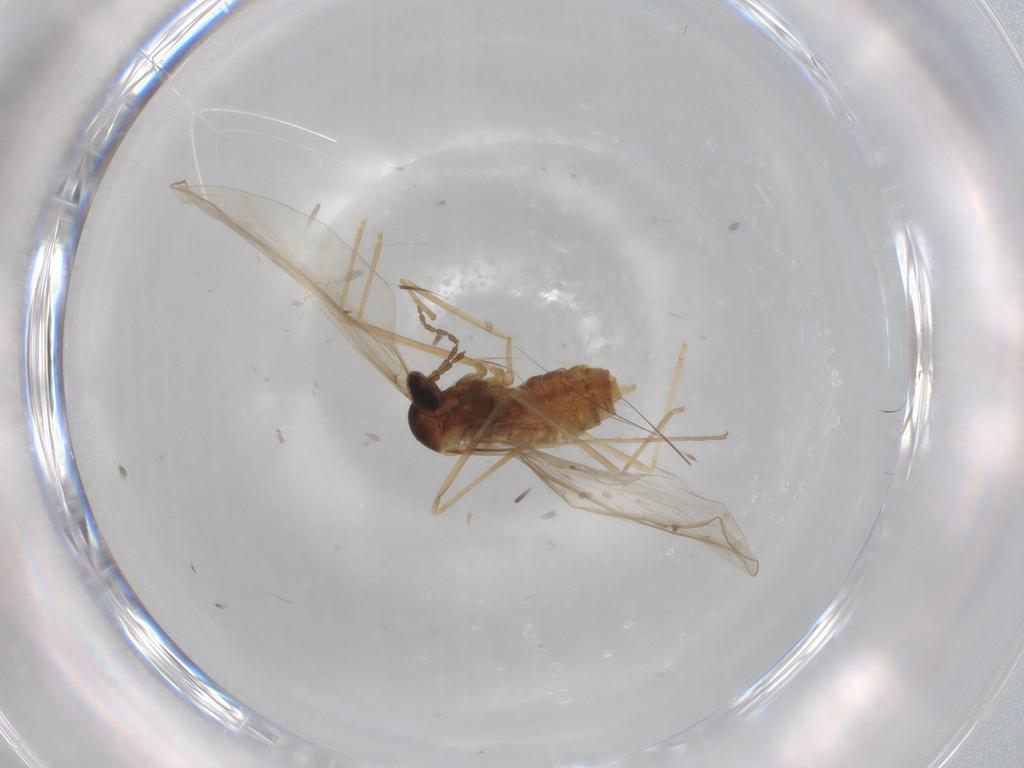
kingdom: Animalia
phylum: Arthropoda
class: Insecta
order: Diptera
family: Cecidomyiidae
